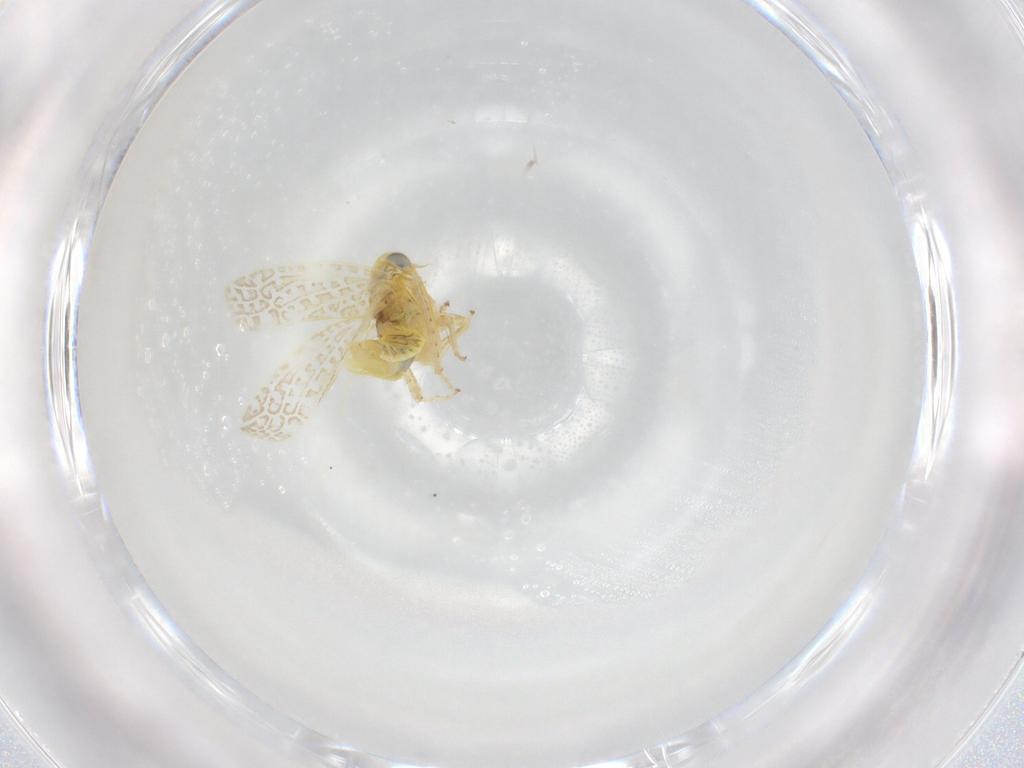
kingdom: Animalia
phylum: Arthropoda
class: Insecta
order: Hemiptera
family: Cicadellidae
